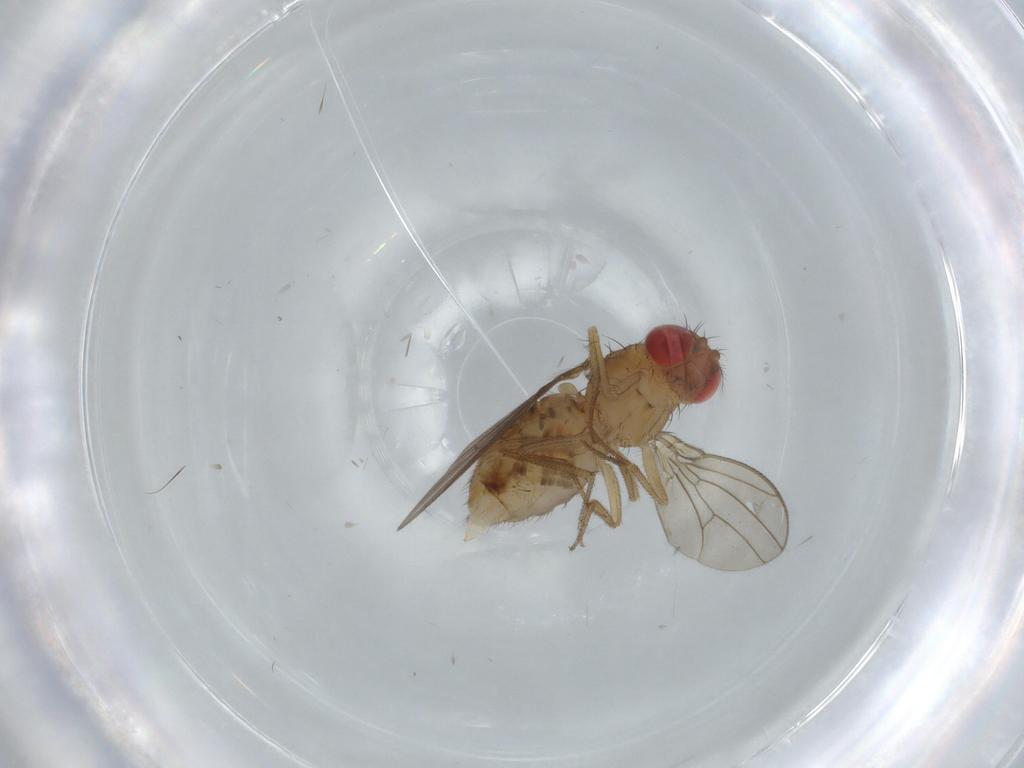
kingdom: Animalia
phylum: Arthropoda
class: Insecta
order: Diptera
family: Drosophilidae
